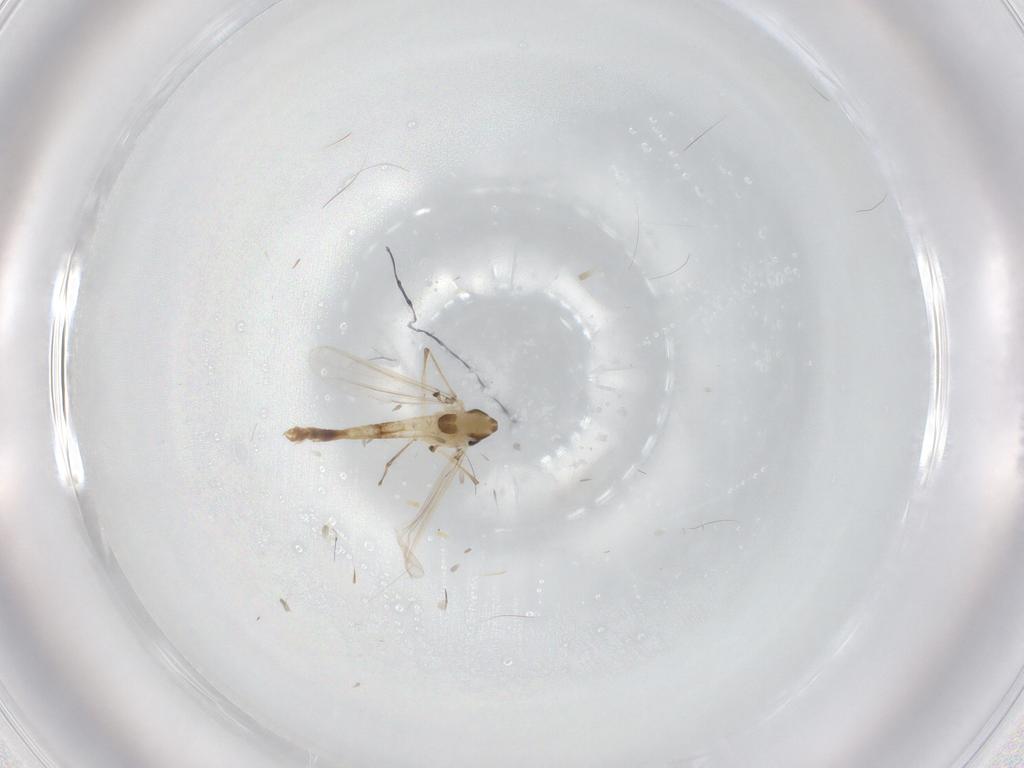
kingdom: Animalia
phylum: Arthropoda
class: Insecta
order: Diptera
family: Chironomidae
